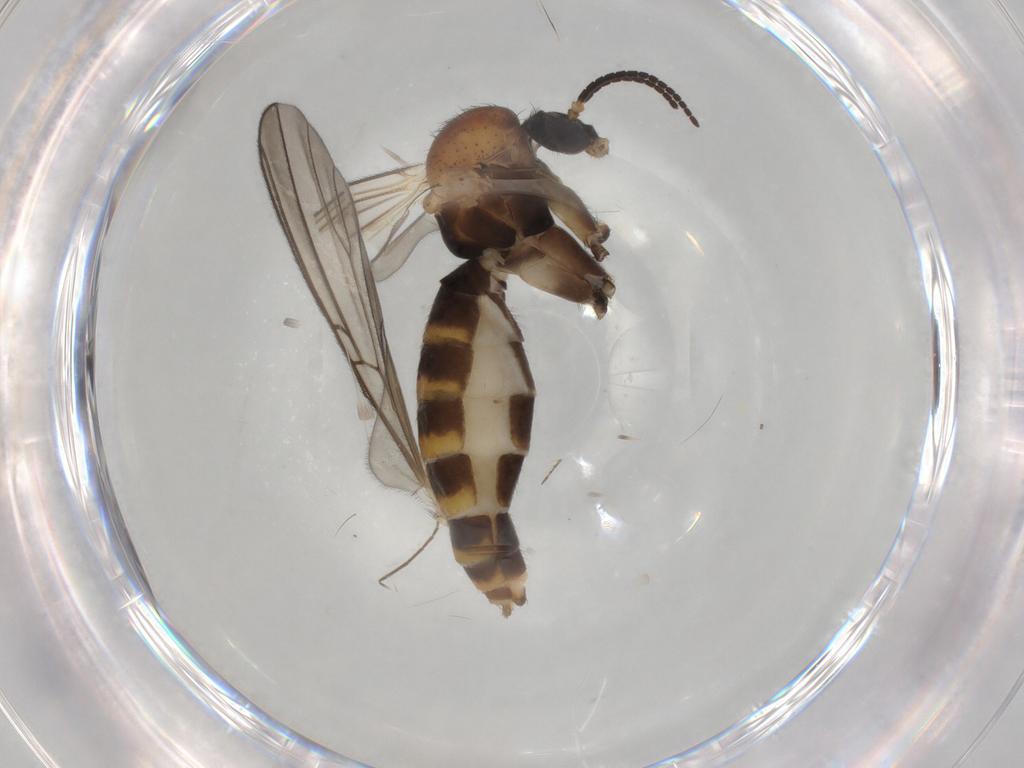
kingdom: Animalia
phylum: Arthropoda
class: Insecta
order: Diptera
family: Mycetophilidae
